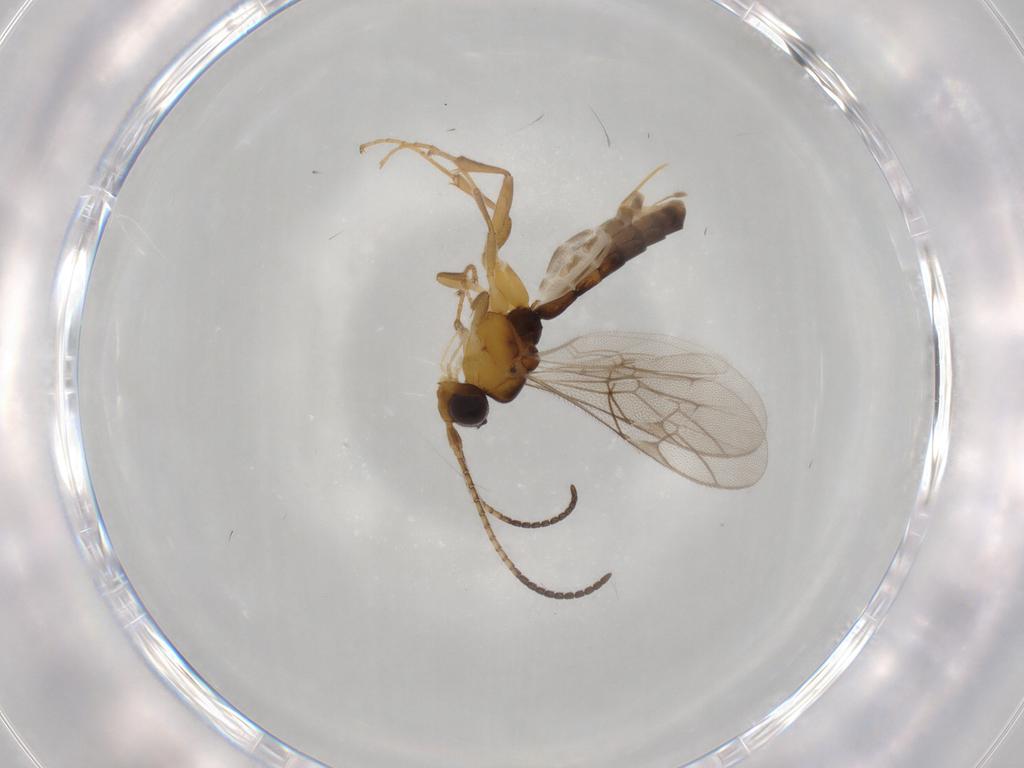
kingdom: Animalia
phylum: Arthropoda
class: Insecta
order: Hymenoptera
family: Ichneumonidae
